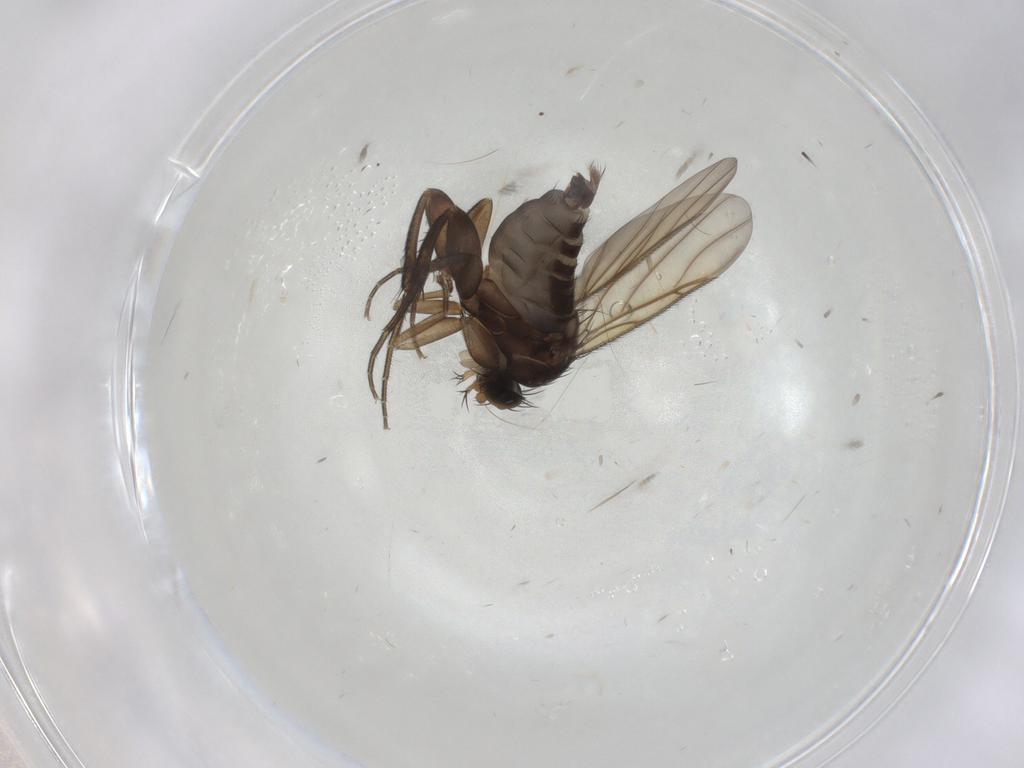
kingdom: Animalia
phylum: Arthropoda
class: Insecta
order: Diptera
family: Phoridae
